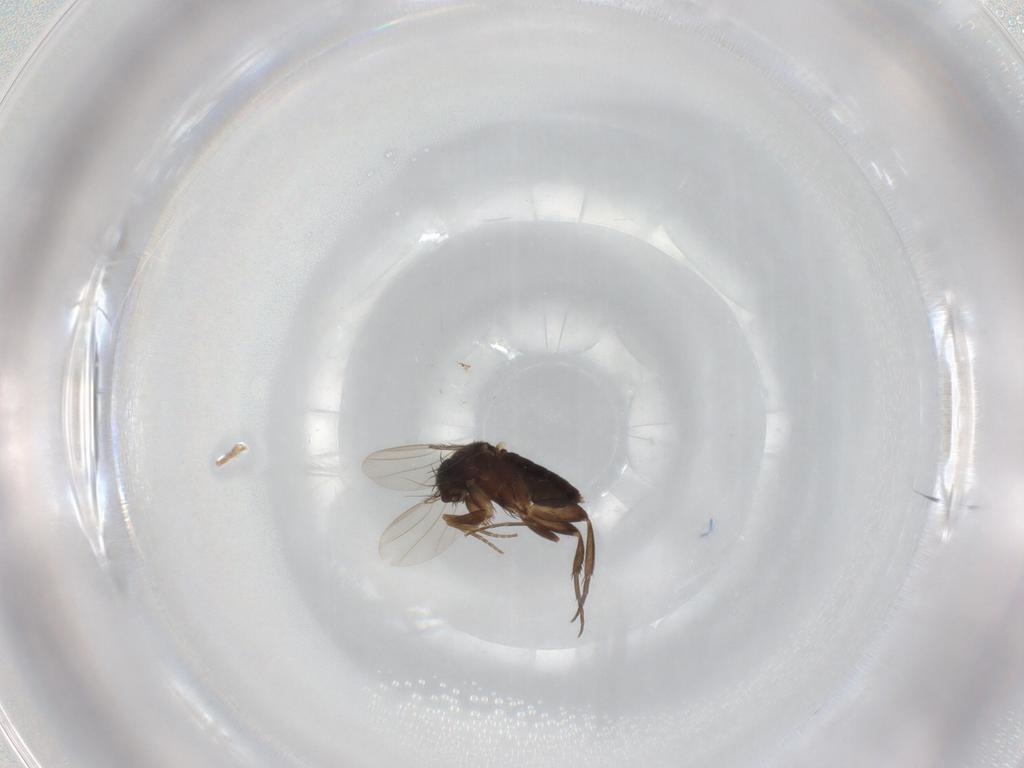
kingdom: Animalia
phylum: Arthropoda
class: Insecta
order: Diptera
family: Phoridae
